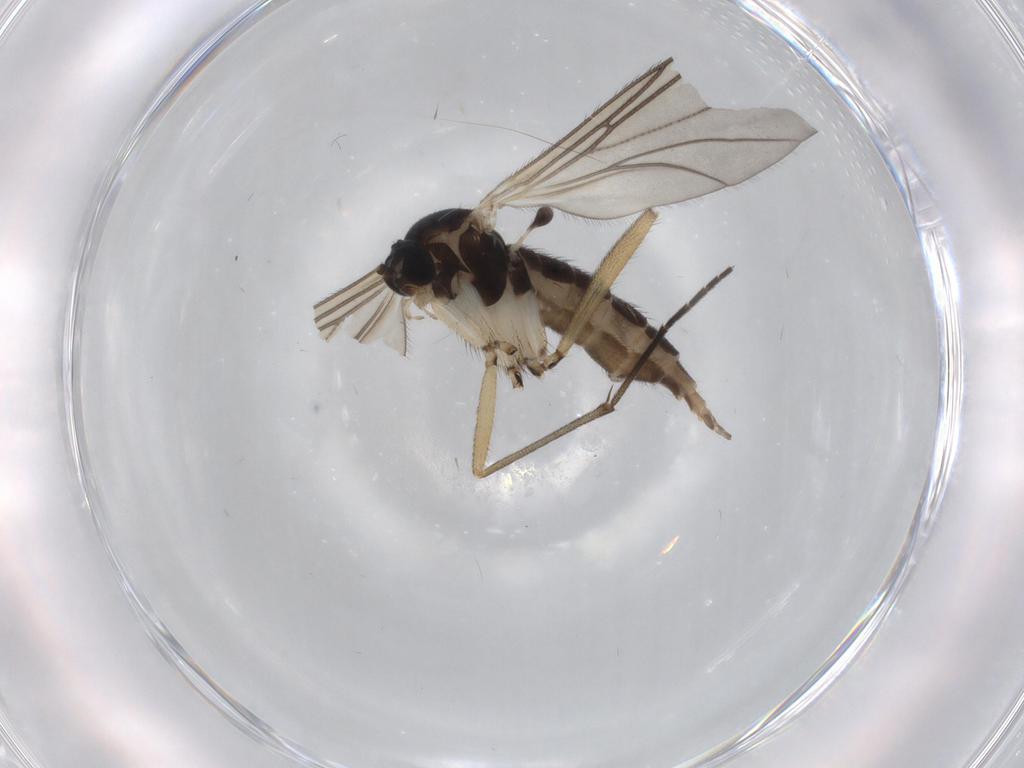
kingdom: Animalia
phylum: Arthropoda
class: Insecta
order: Diptera
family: Sciaridae
